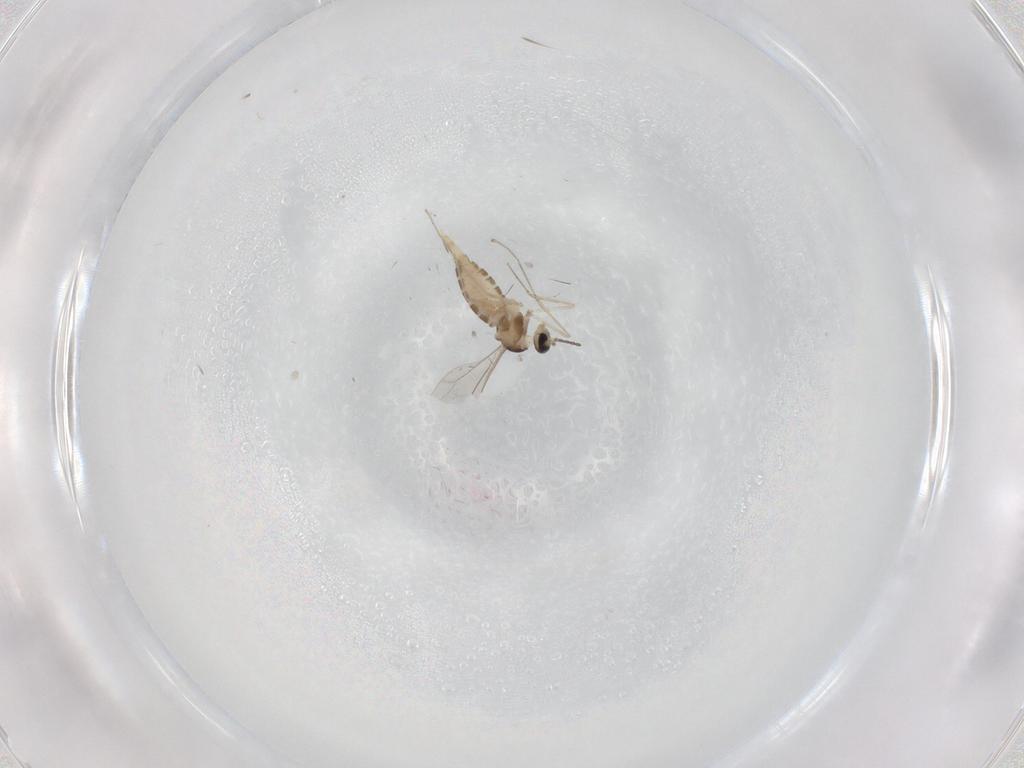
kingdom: Animalia
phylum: Arthropoda
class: Insecta
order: Diptera
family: Cecidomyiidae
